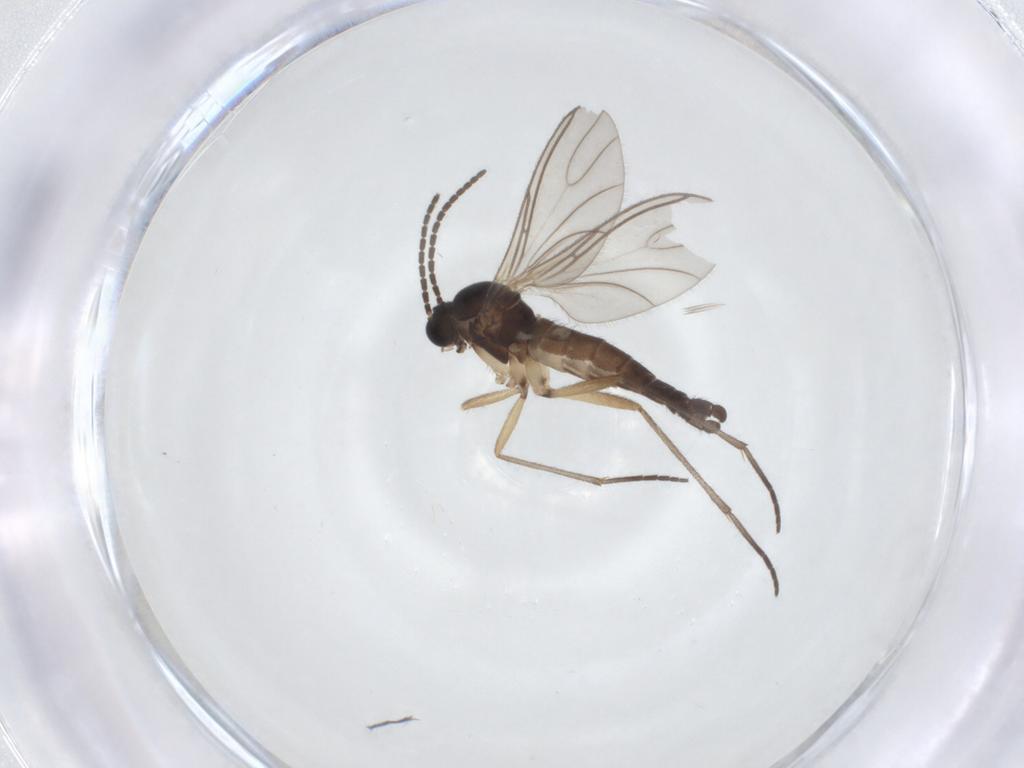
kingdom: Animalia
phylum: Arthropoda
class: Insecta
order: Diptera
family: Sciaridae
